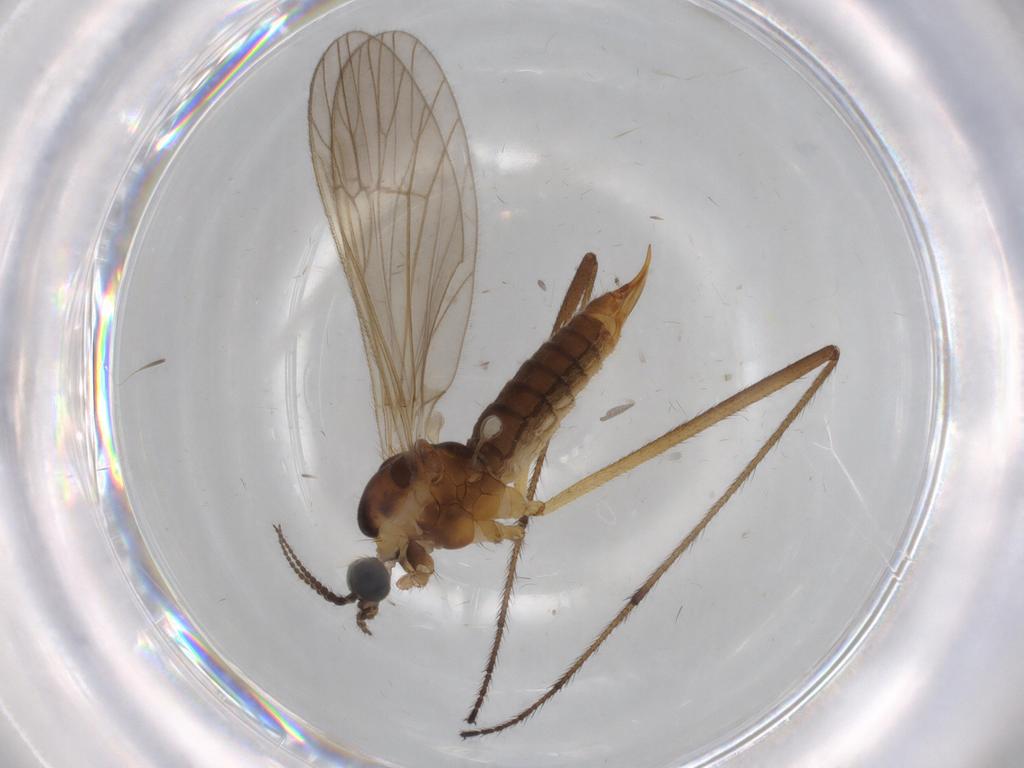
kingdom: Animalia
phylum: Arthropoda
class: Insecta
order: Diptera
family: Agromyzidae
